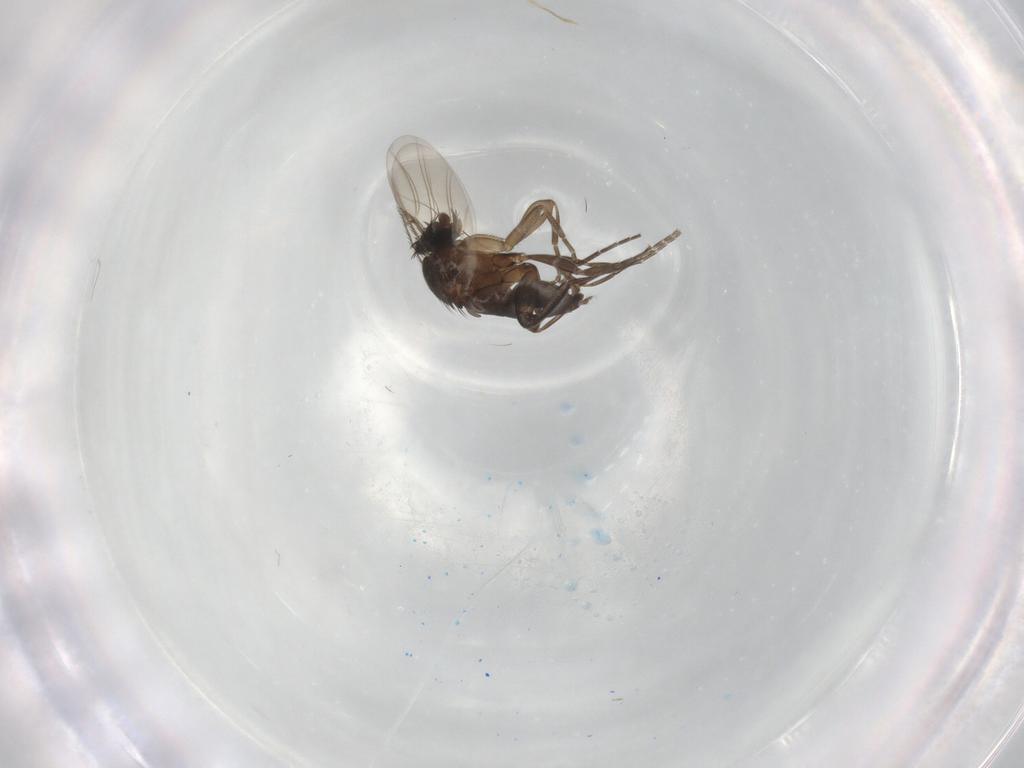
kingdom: Animalia
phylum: Arthropoda
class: Insecta
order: Diptera
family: Phoridae
